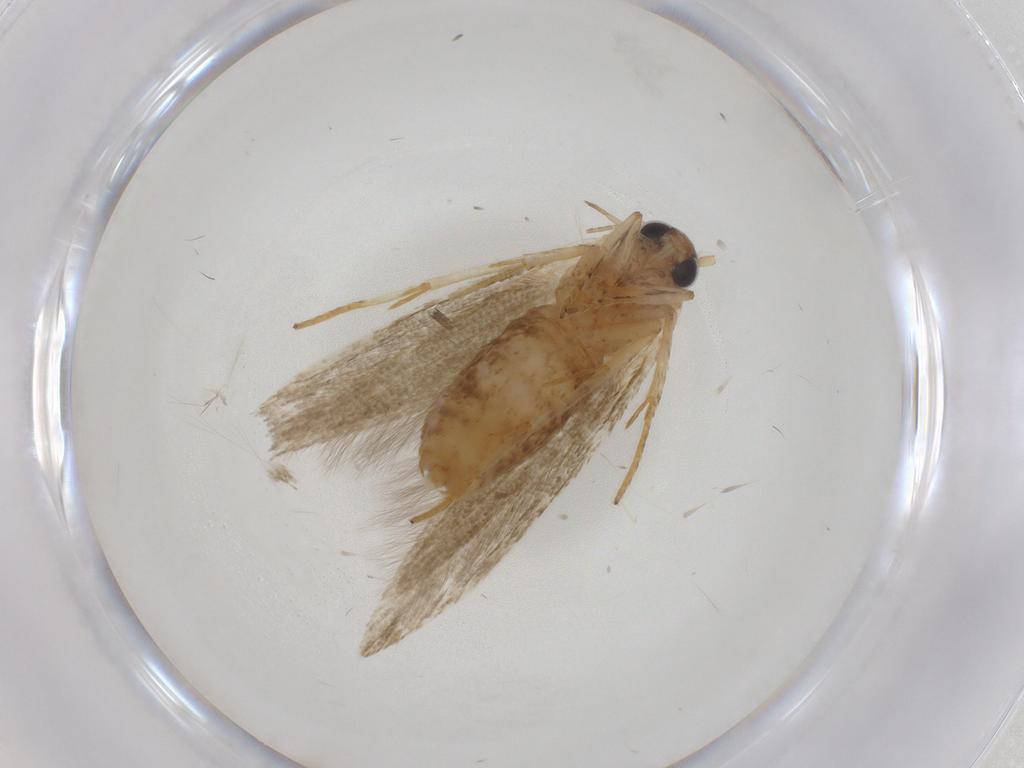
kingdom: Animalia
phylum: Arthropoda
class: Insecta
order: Lepidoptera
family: Blastobasidae
